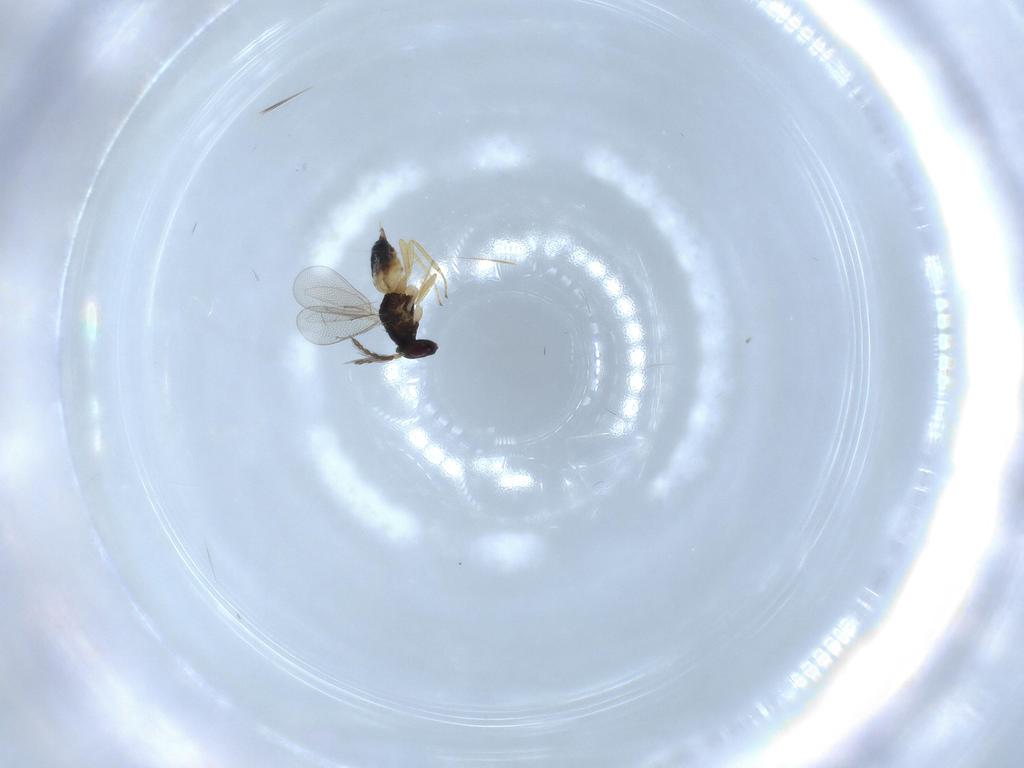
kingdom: Animalia
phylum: Arthropoda
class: Insecta
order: Hymenoptera
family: Eulophidae
